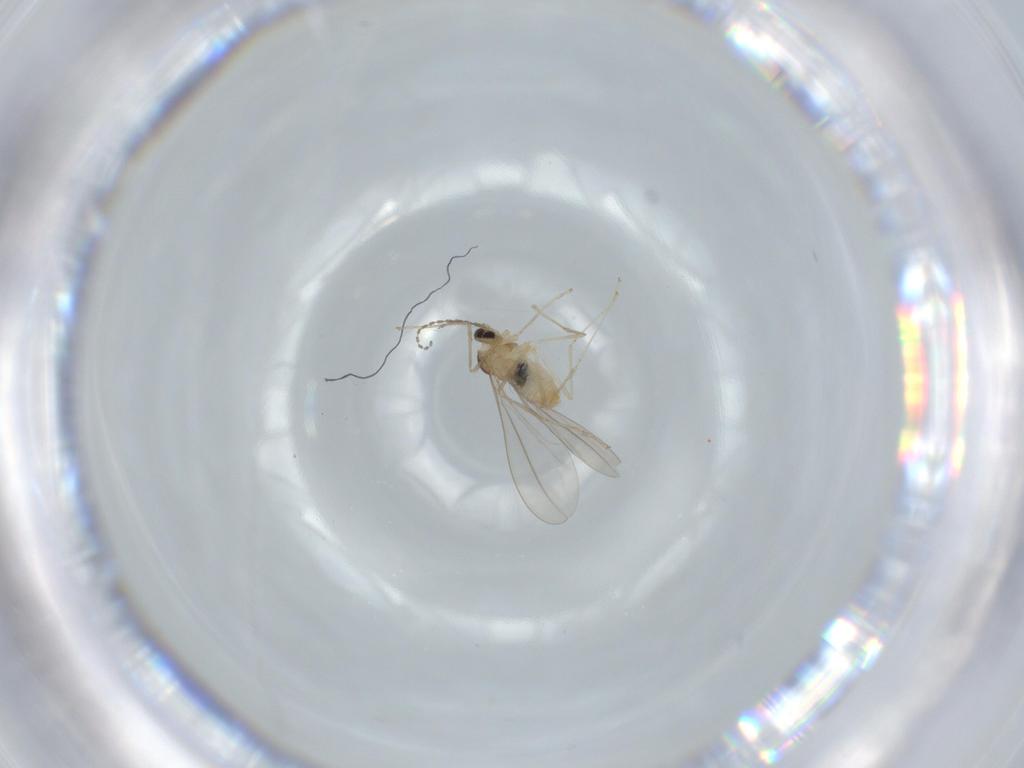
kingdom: Animalia
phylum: Arthropoda
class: Insecta
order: Diptera
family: Cecidomyiidae
